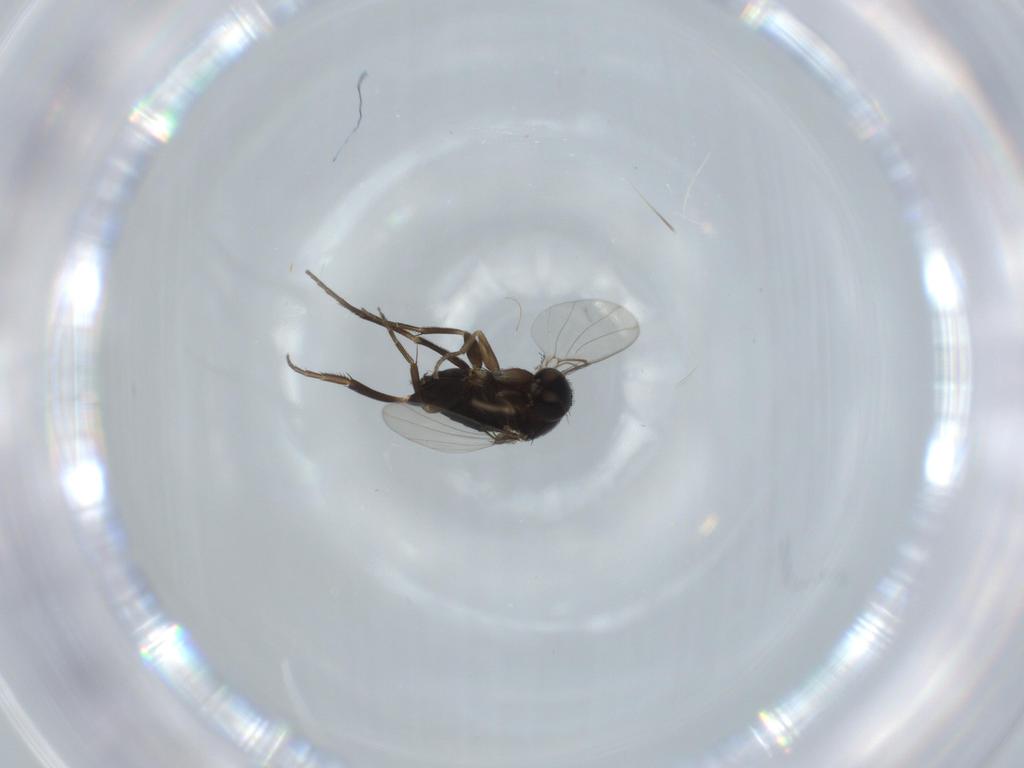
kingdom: Animalia
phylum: Arthropoda
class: Insecta
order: Diptera
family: Phoridae
